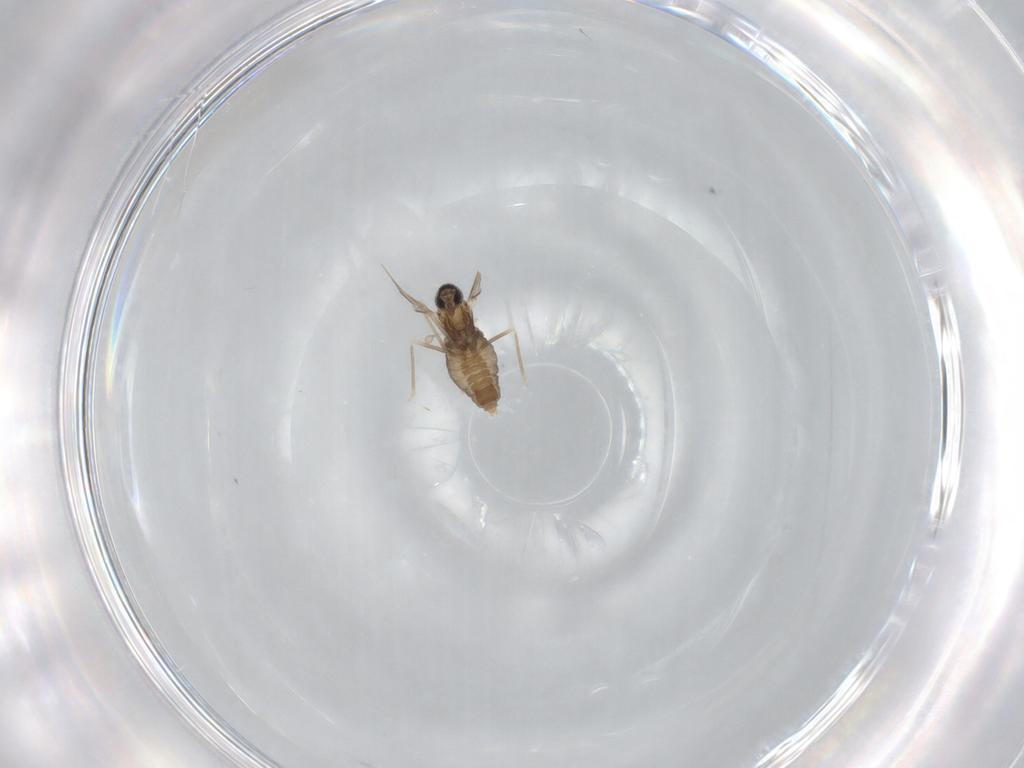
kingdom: Animalia
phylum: Arthropoda
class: Insecta
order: Diptera
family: Cecidomyiidae
